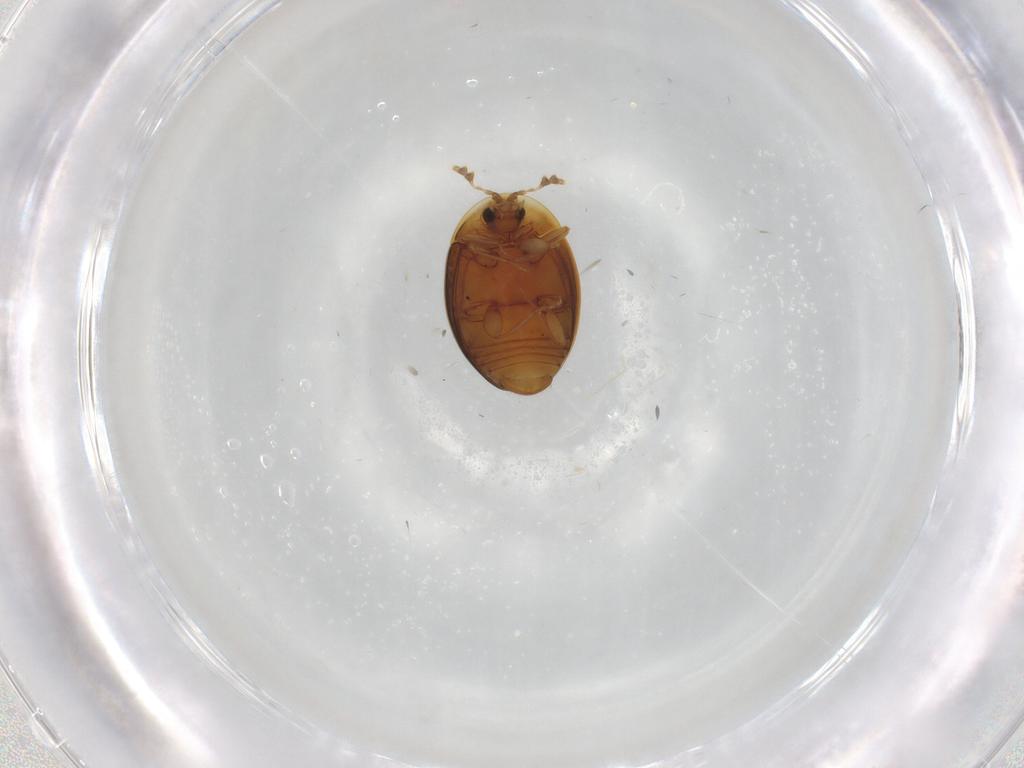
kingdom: Animalia
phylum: Arthropoda
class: Insecta
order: Coleoptera
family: Corylophidae
